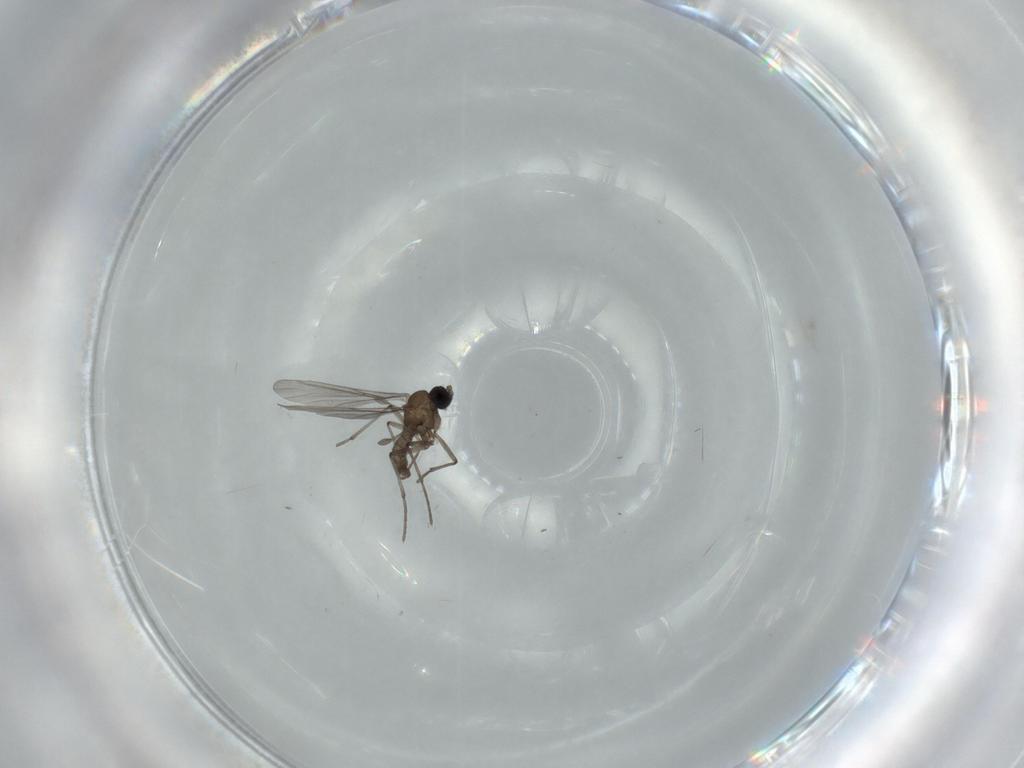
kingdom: Animalia
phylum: Arthropoda
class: Insecta
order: Diptera
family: Sciaridae
